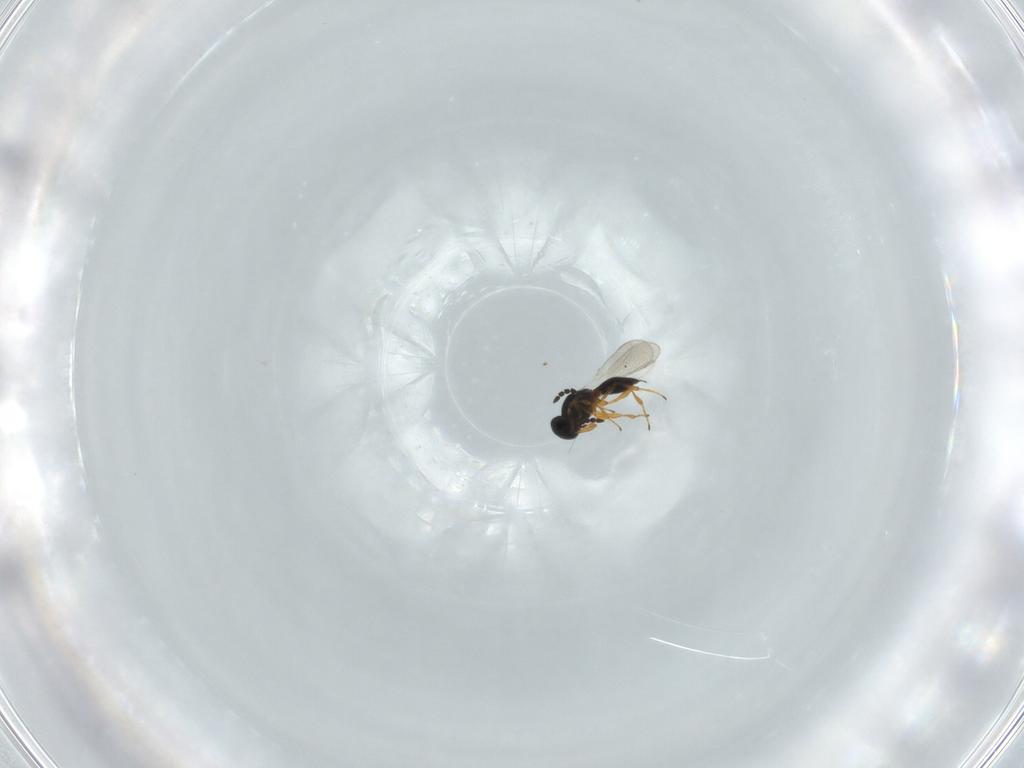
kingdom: Animalia
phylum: Arthropoda
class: Insecta
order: Hymenoptera
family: Platygastridae
